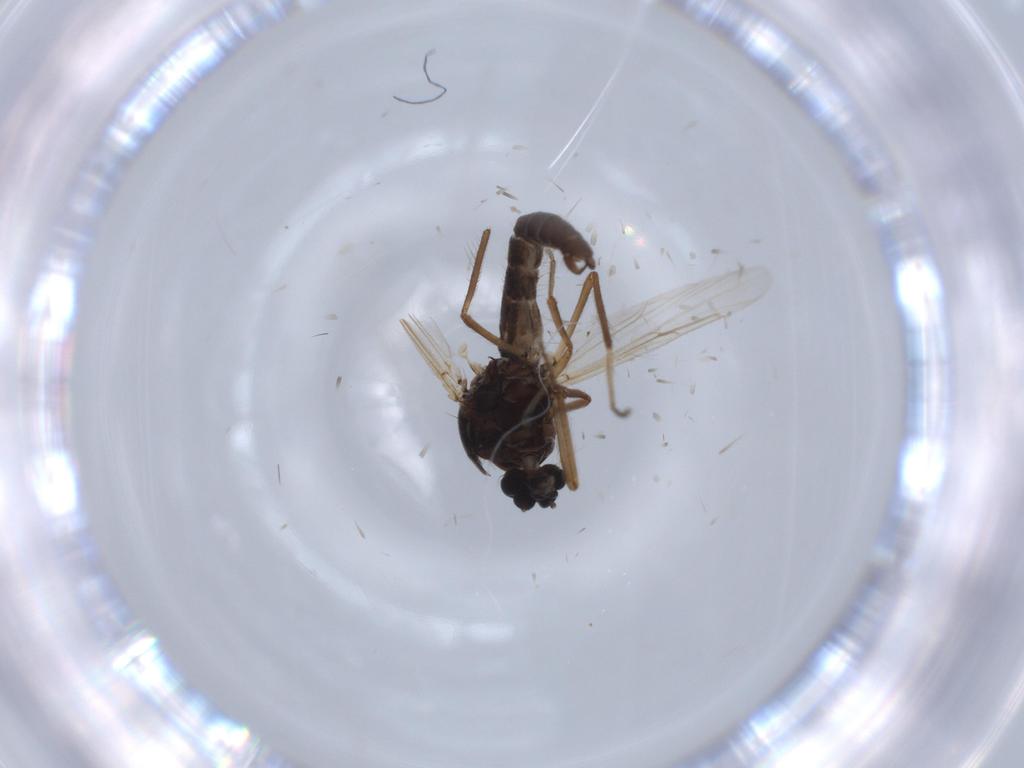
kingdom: Animalia
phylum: Arthropoda
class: Insecta
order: Diptera
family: Ceratopogonidae
